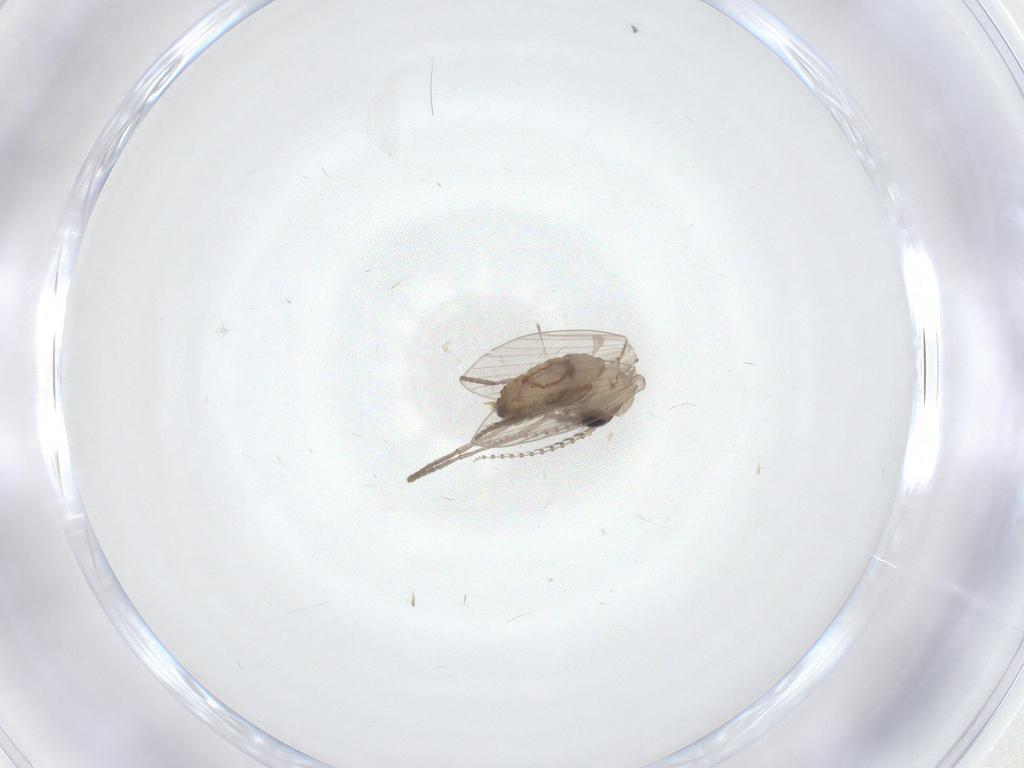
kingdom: Animalia
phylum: Arthropoda
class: Insecta
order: Diptera
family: Psychodidae
